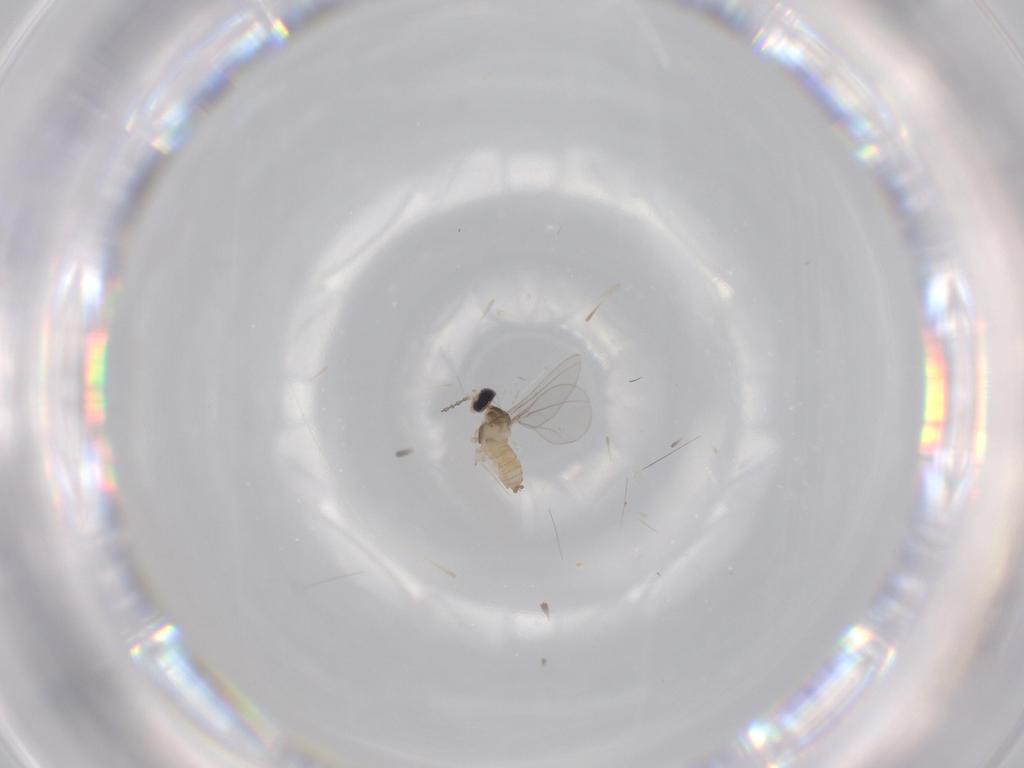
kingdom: Animalia
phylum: Arthropoda
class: Insecta
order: Diptera
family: Cecidomyiidae
